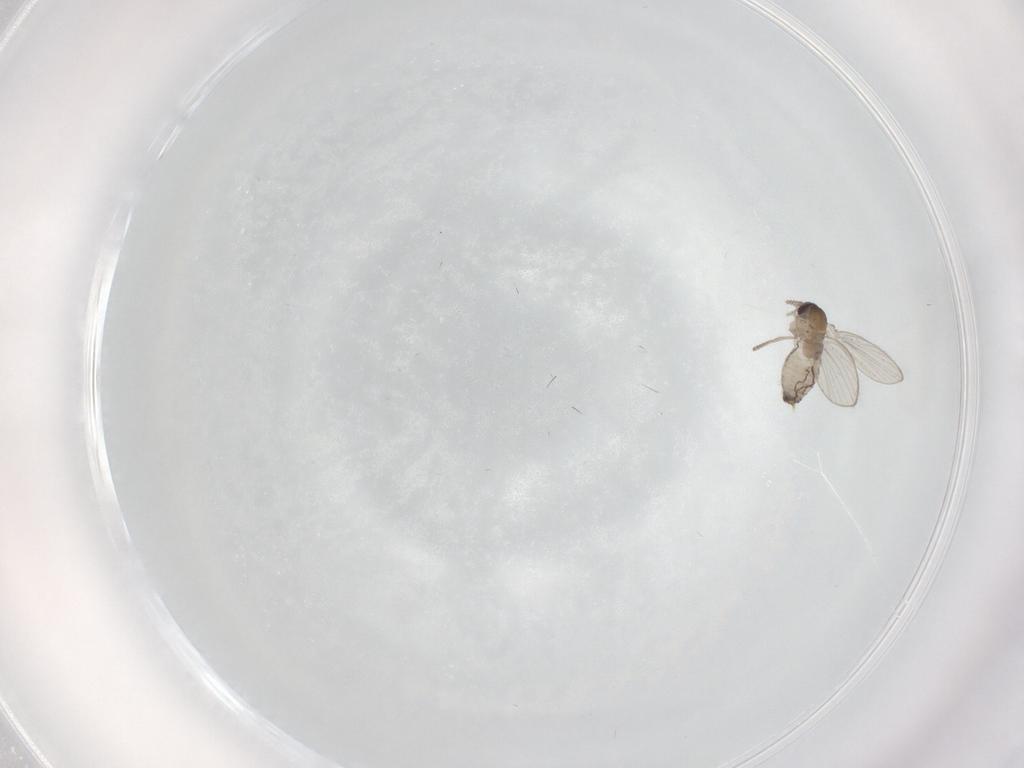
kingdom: Animalia
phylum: Arthropoda
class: Insecta
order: Diptera
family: Psychodidae
